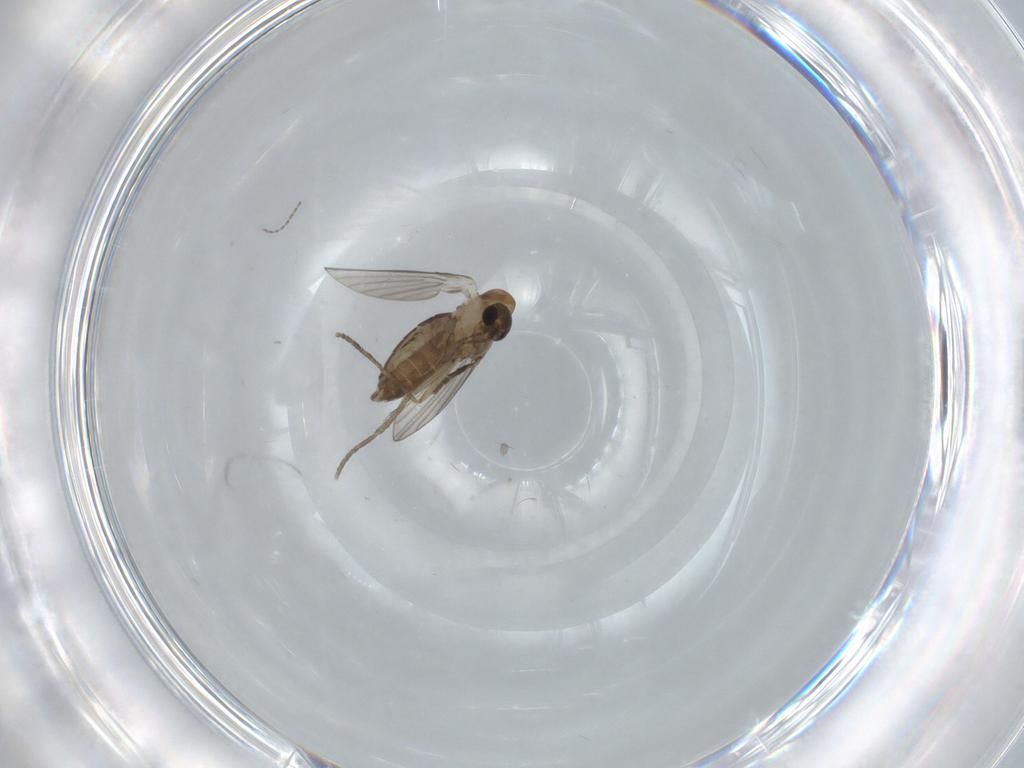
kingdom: Animalia
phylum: Arthropoda
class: Insecta
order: Diptera
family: Psychodidae
